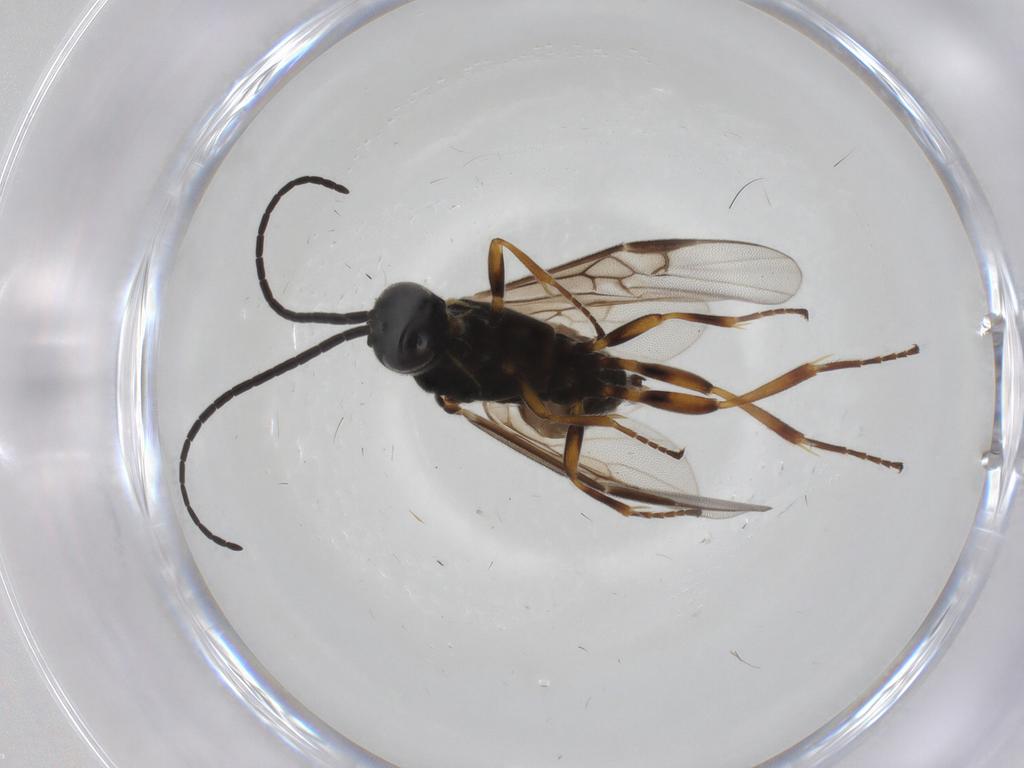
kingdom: Animalia
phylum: Arthropoda
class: Insecta
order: Hymenoptera
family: Braconidae
